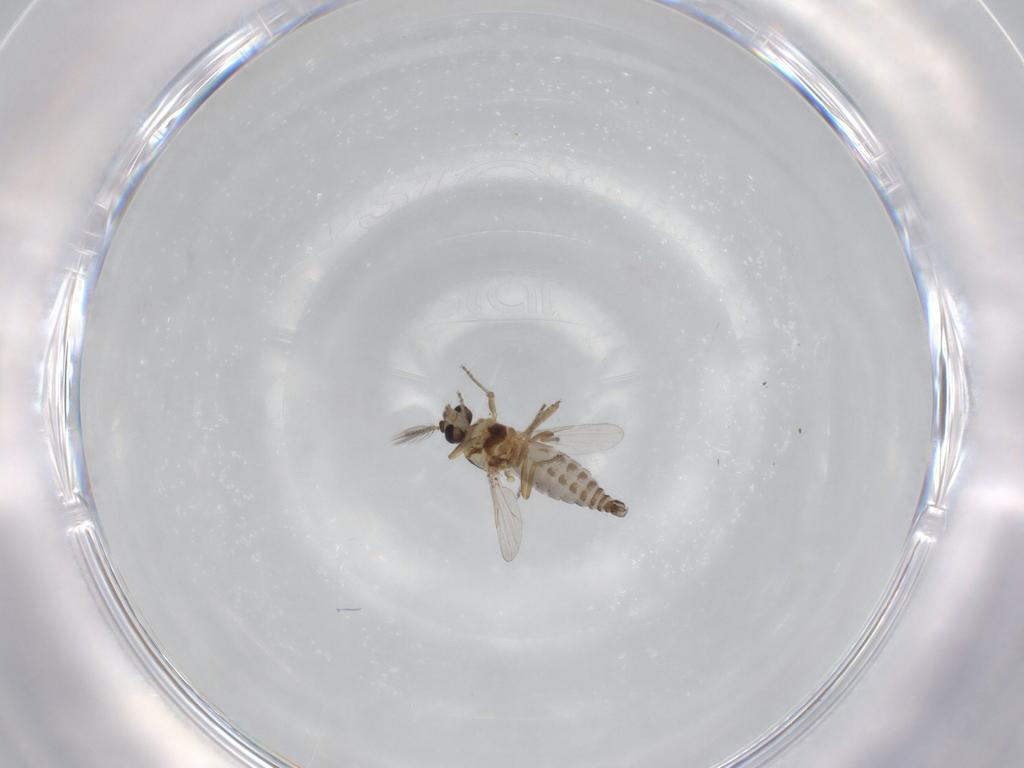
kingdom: Animalia
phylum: Arthropoda
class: Insecta
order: Diptera
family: Ceratopogonidae
